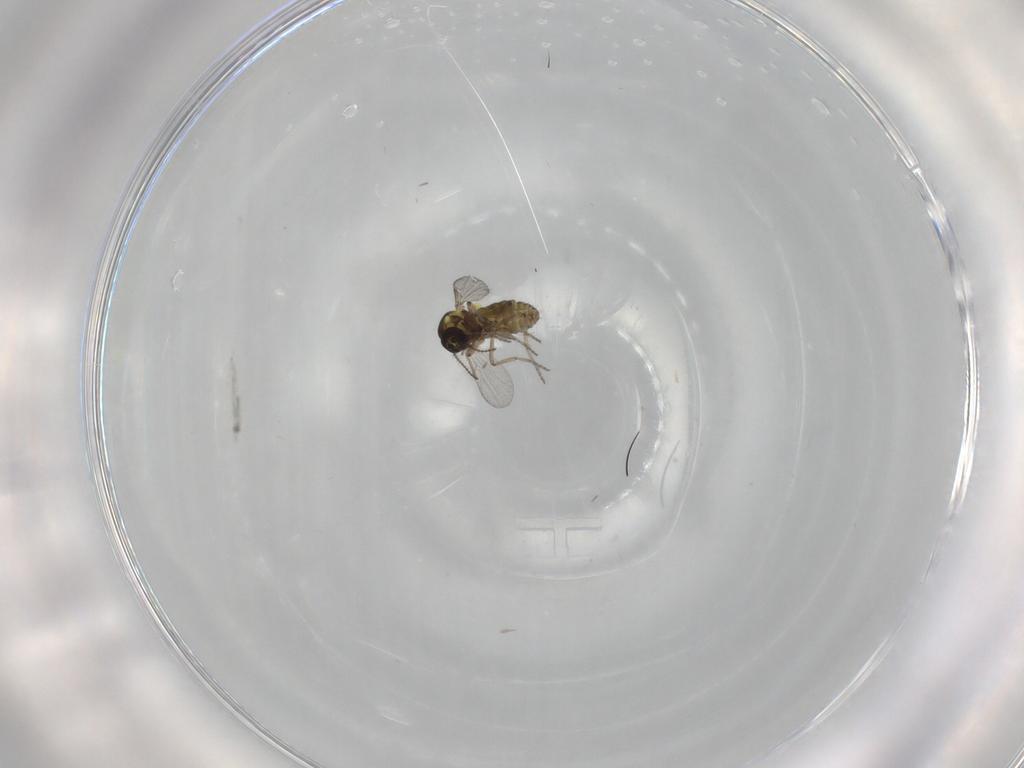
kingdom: Animalia
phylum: Arthropoda
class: Insecta
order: Diptera
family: Ceratopogonidae
